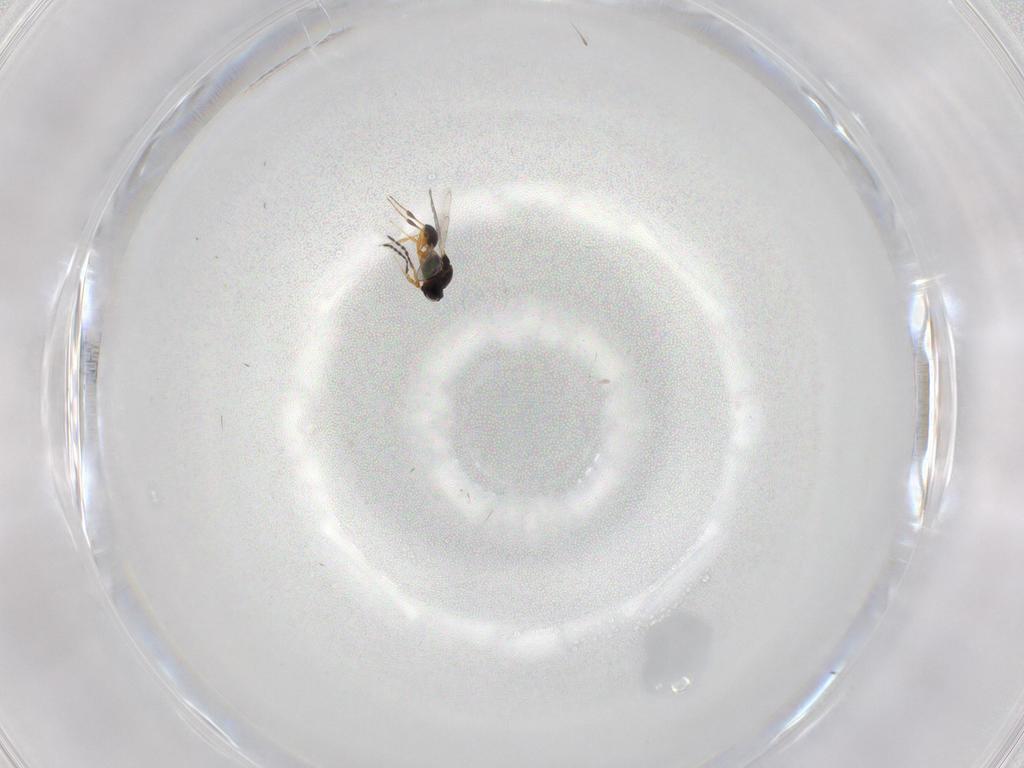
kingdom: Animalia
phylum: Arthropoda
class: Insecta
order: Hymenoptera
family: Platygastridae
